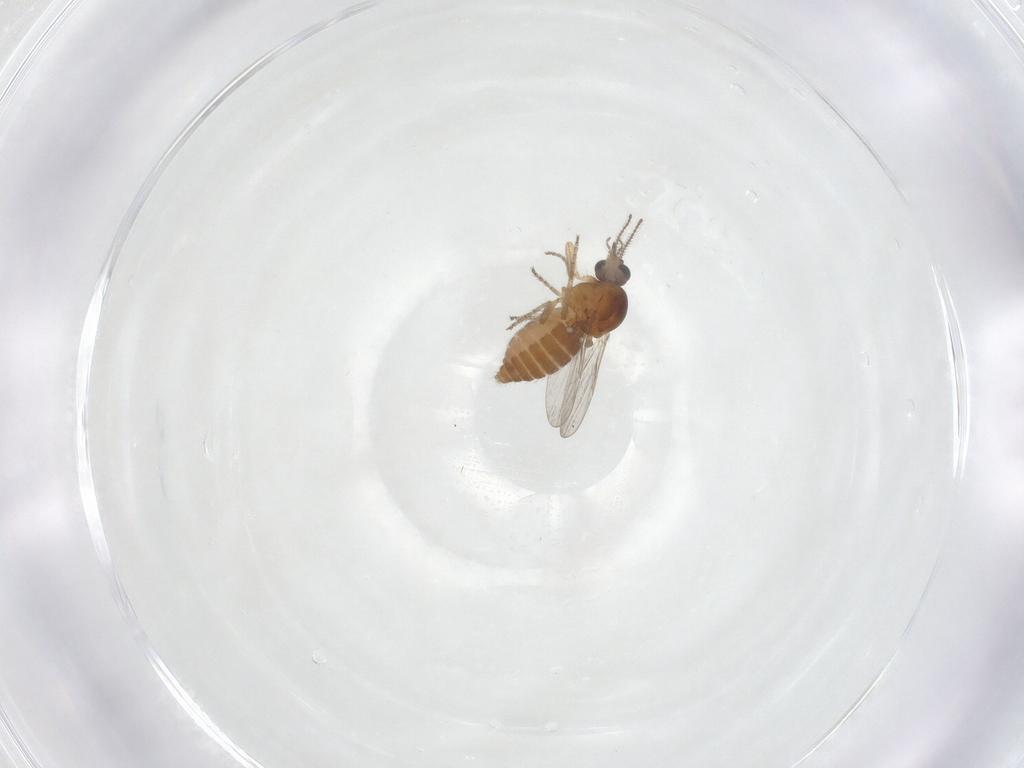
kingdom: Animalia
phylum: Arthropoda
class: Insecta
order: Diptera
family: Ceratopogonidae
